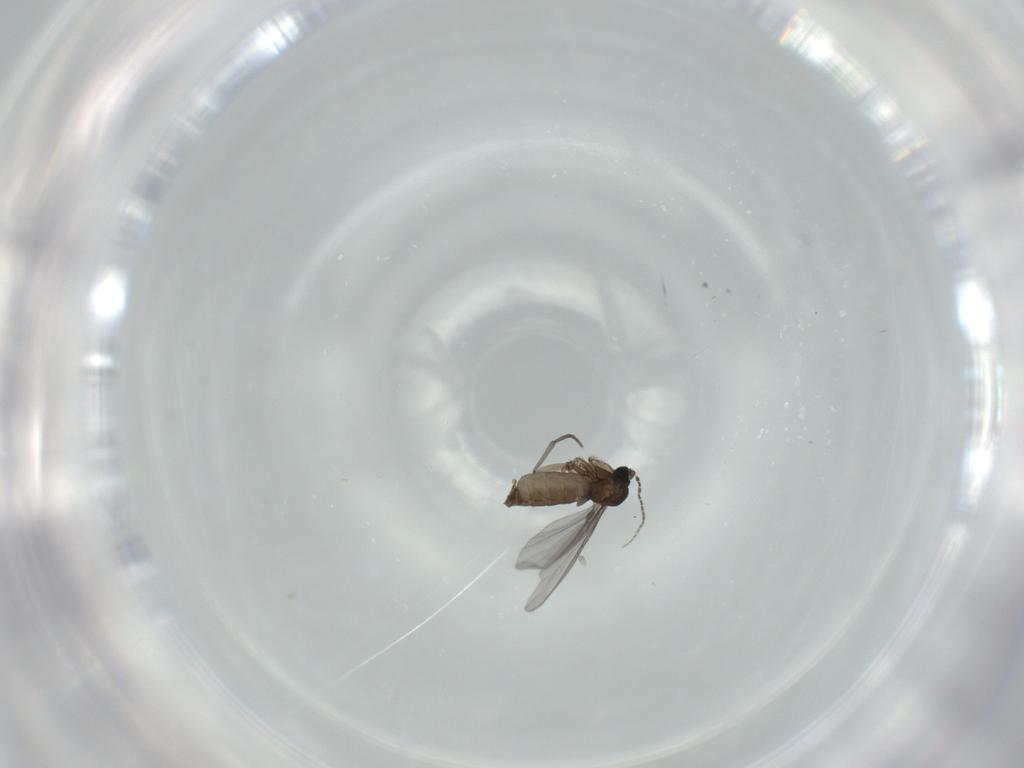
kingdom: Animalia
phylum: Arthropoda
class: Insecta
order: Diptera
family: Sciaridae
